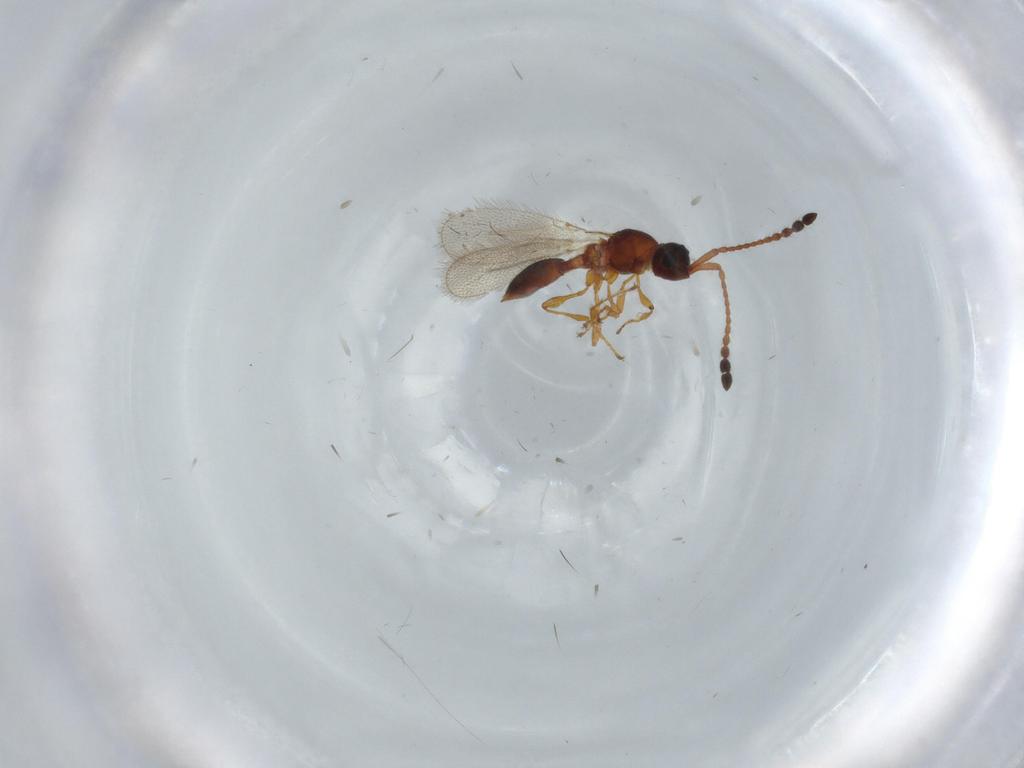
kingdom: Animalia
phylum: Arthropoda
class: Insecta
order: Hymenoptera
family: Diapriidae
